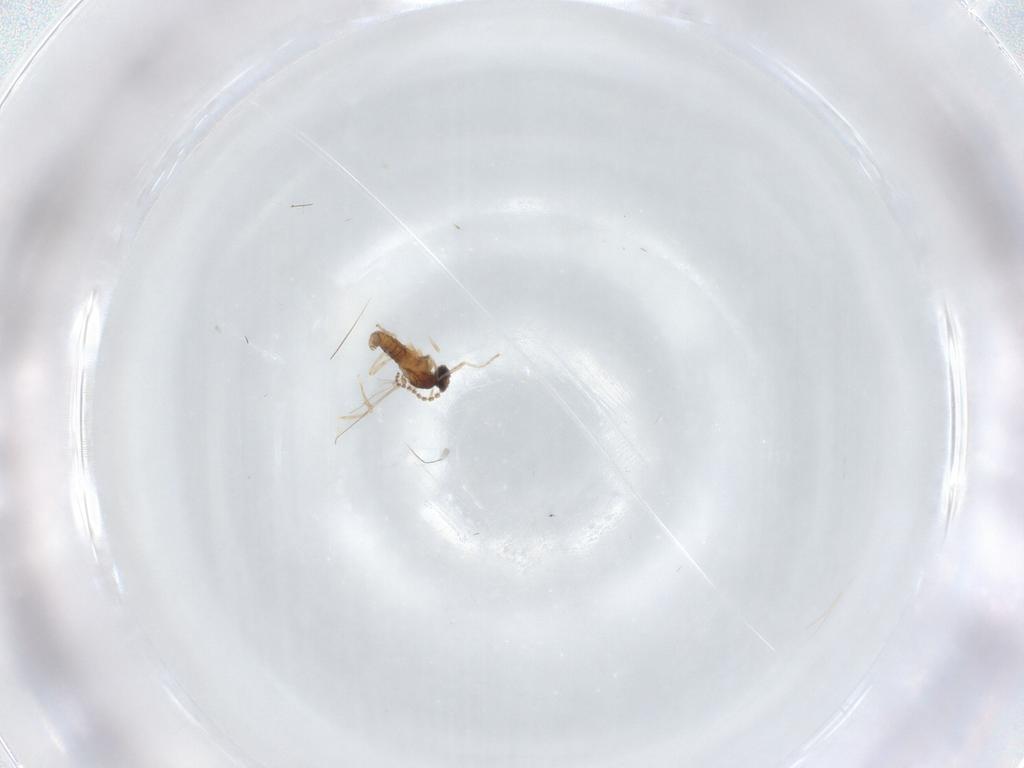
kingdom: Animalia
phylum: Arthropoda
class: Insecta
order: Diptera
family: Cecidomyiidae
